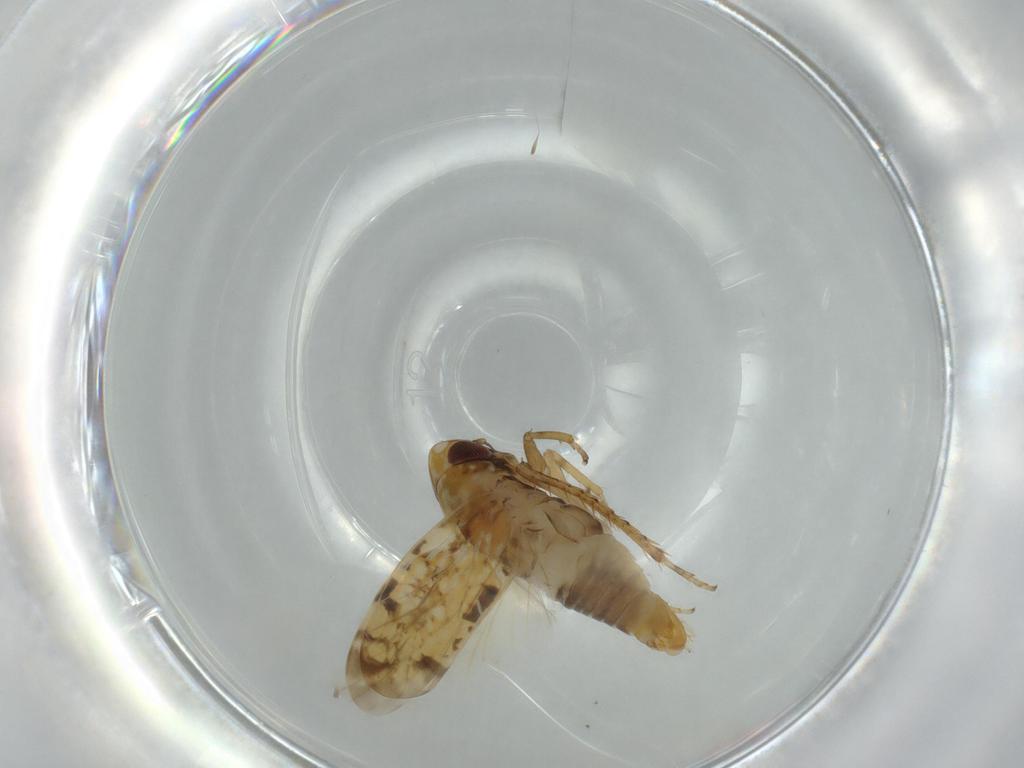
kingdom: Animalia
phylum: Arthropoda
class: Insecta
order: Hemiptera
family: Cicadellidae
